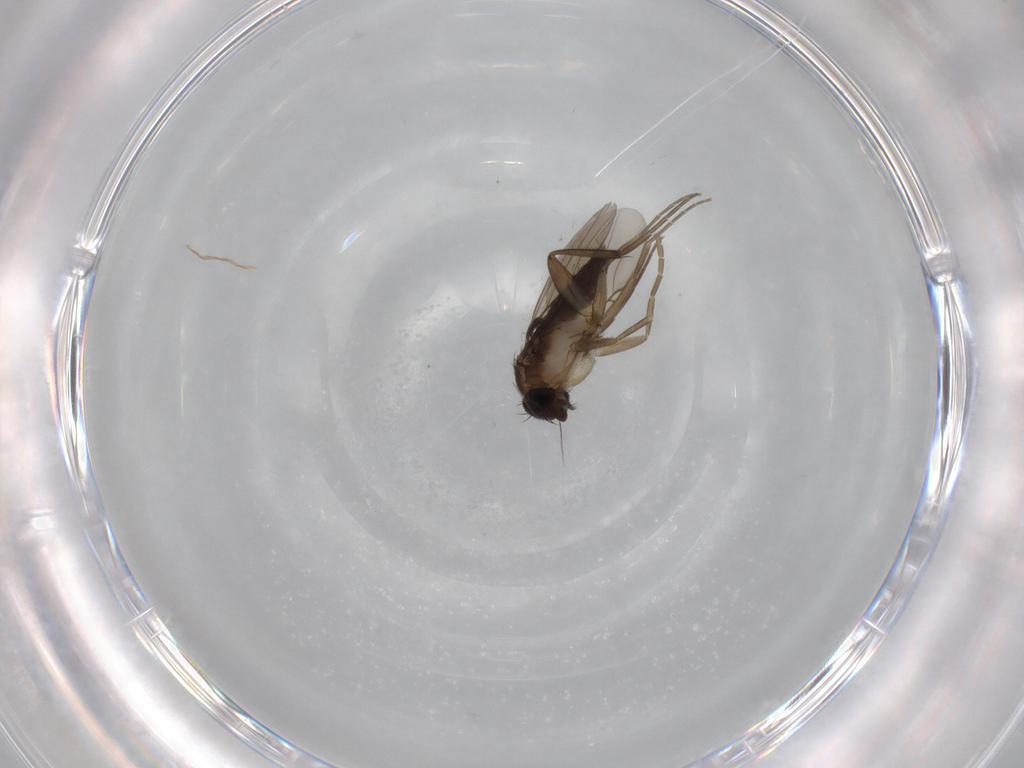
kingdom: Animalia
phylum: Arthropoda
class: Insecta
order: Diptera
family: Phoridae
